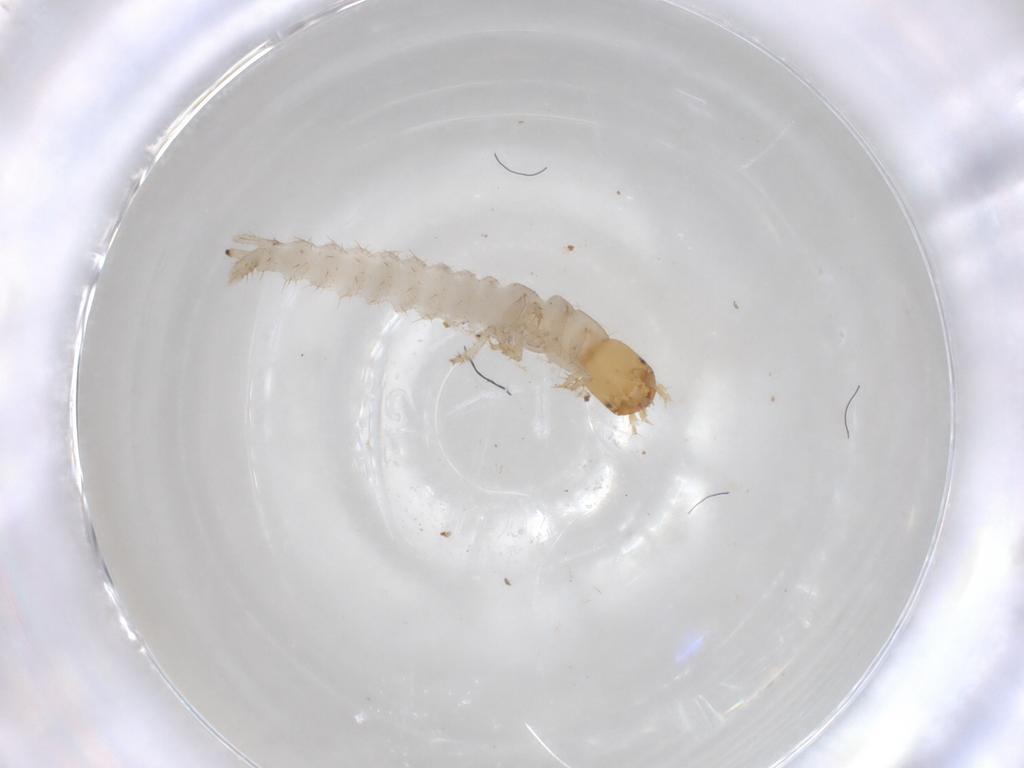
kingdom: Animalia
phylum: Arthropoda
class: Insecta
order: Coleoptera
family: Staphylinidae
